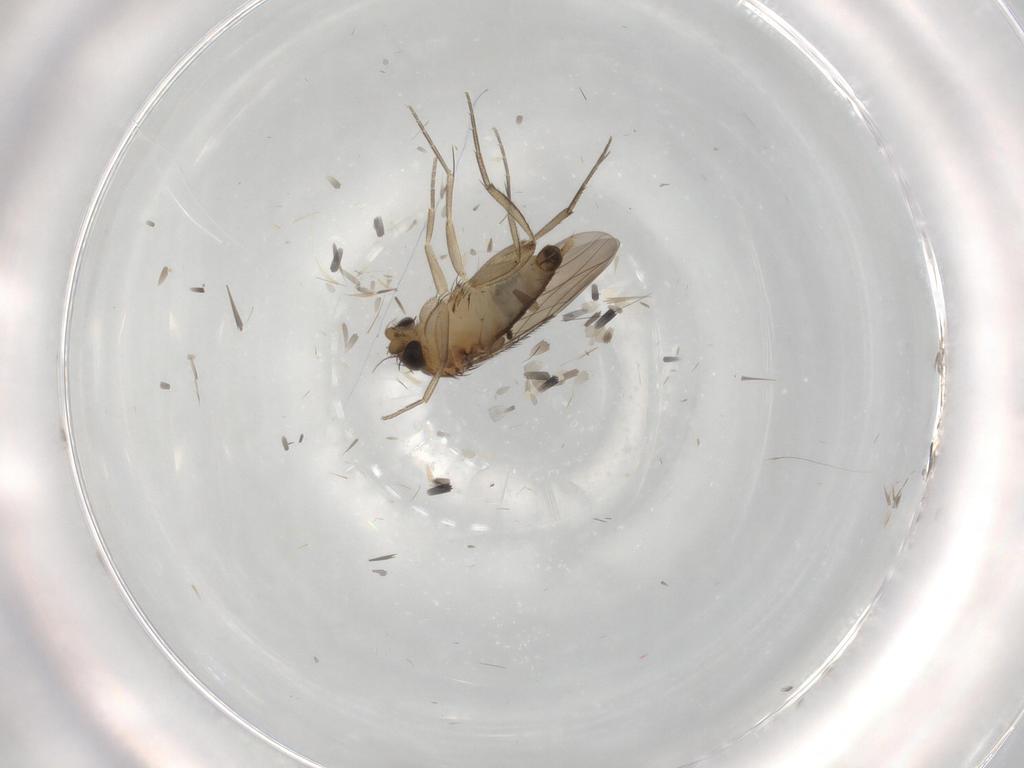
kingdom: Animalia
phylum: Arthropoda
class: Insecta
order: Diptera
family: Phoridae
